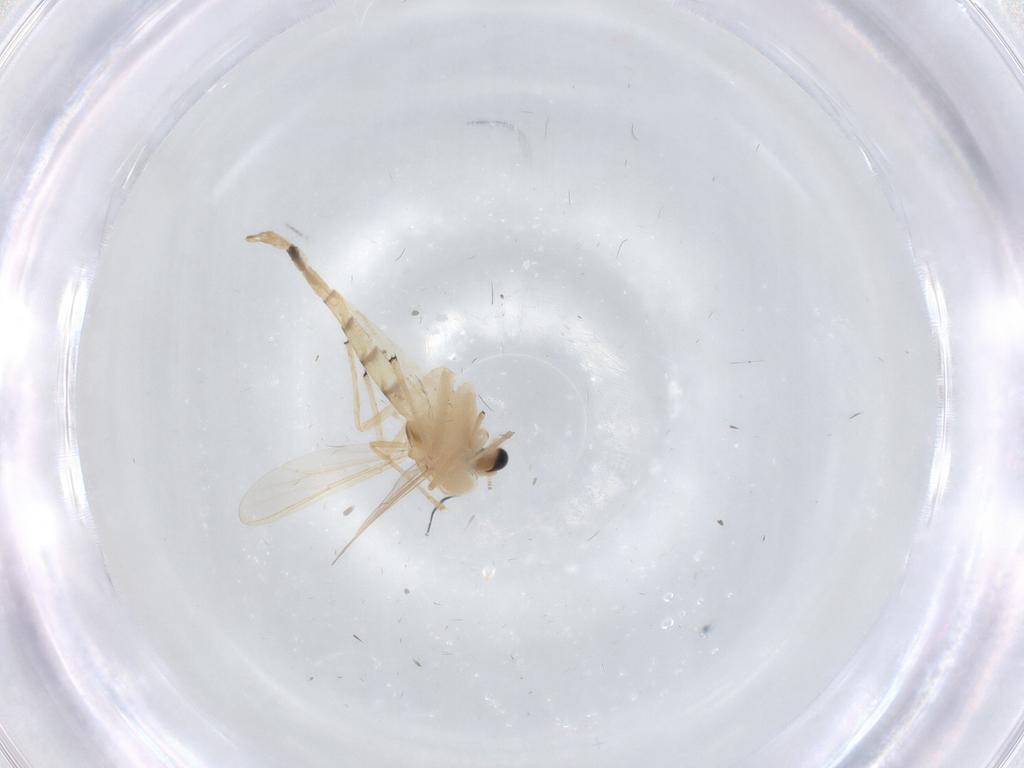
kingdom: Animalia
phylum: Arthropoda
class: Insecta
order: Diptera
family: Chironomidae
